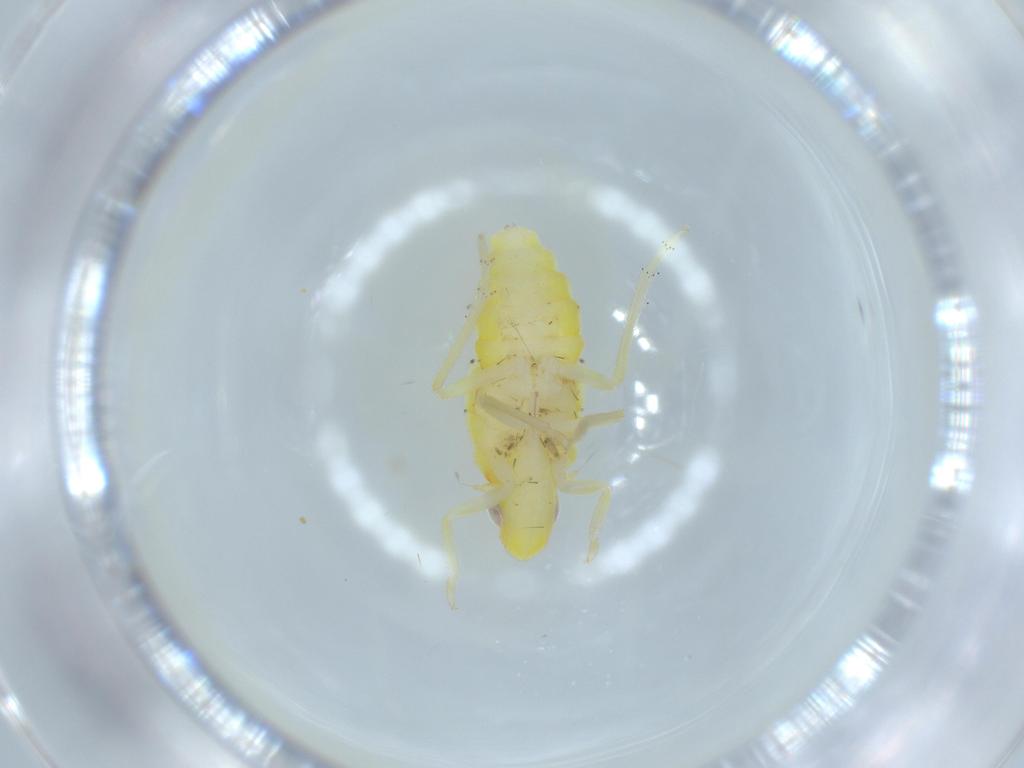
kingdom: Animalia
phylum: Arthropoda
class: Insecta
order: Hemiptera
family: Tropiduchidae
